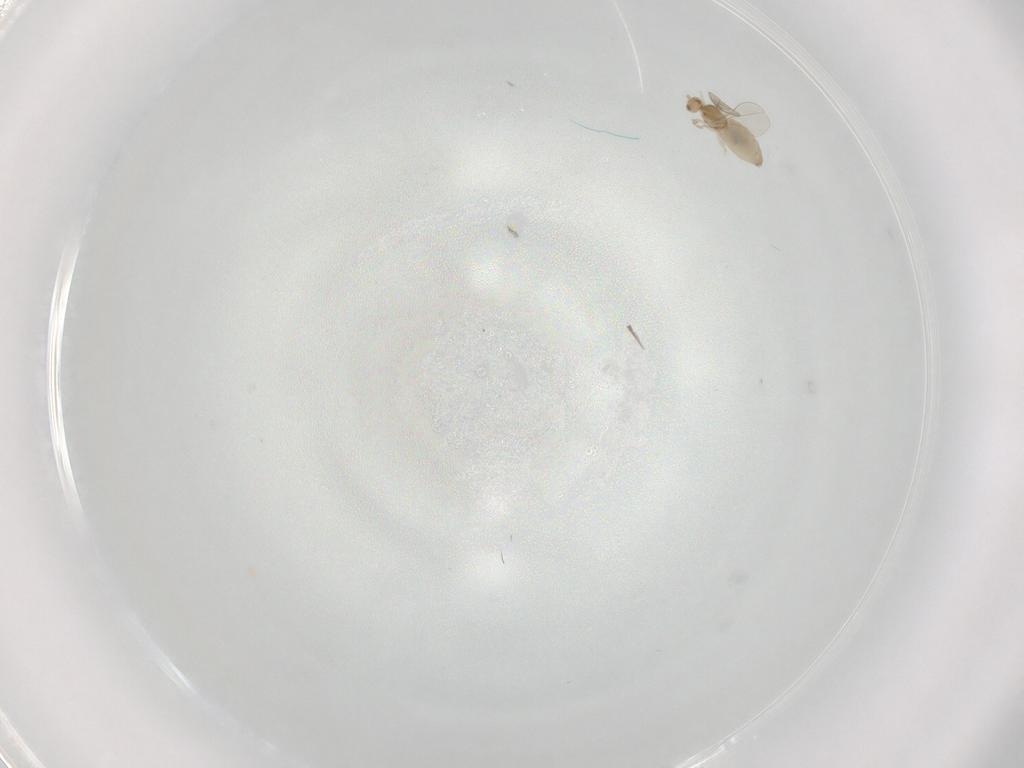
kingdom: Animalia
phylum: Arthropoda
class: Insecta
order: Diptera
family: Cecidomyiidae
